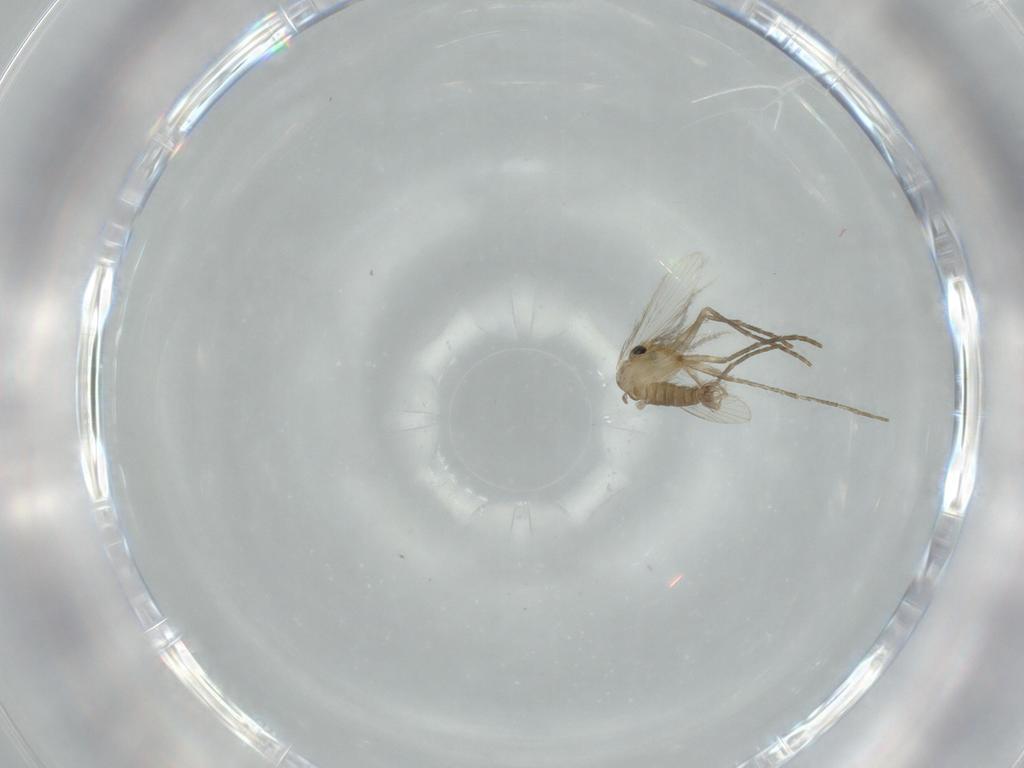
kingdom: Animalia
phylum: Arthropoda
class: Insecta
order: Diptera
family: Psychodidae
